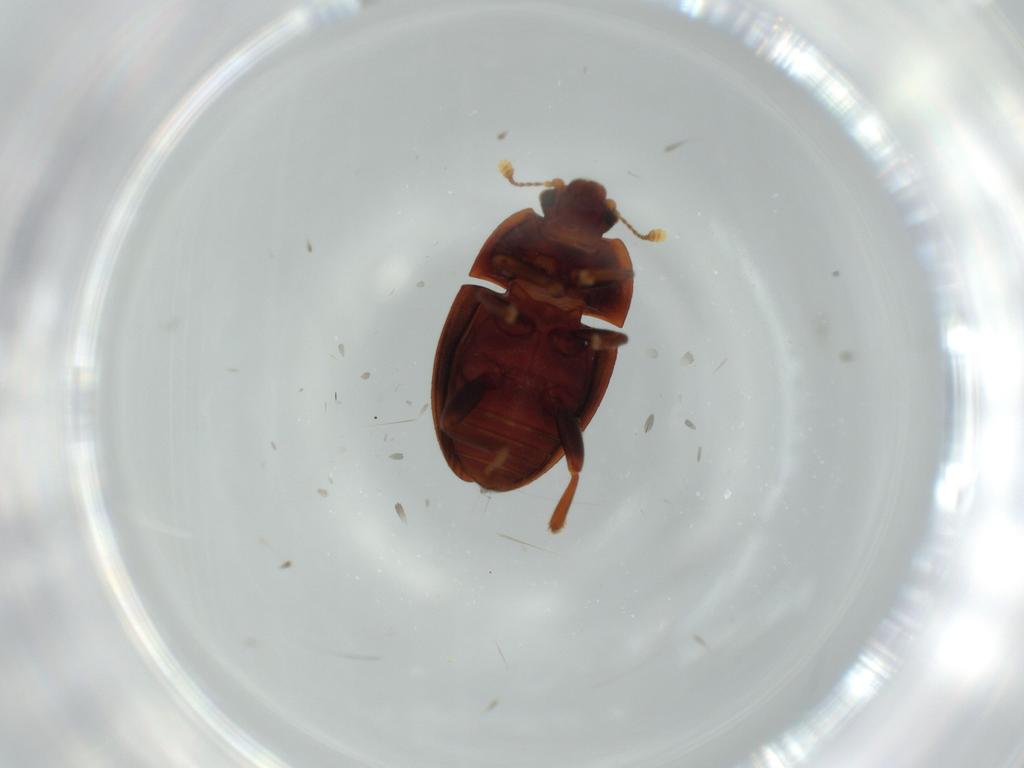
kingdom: Animalia
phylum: Arthropoda
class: Insecta
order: Coleoptera
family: Nitidulidae
